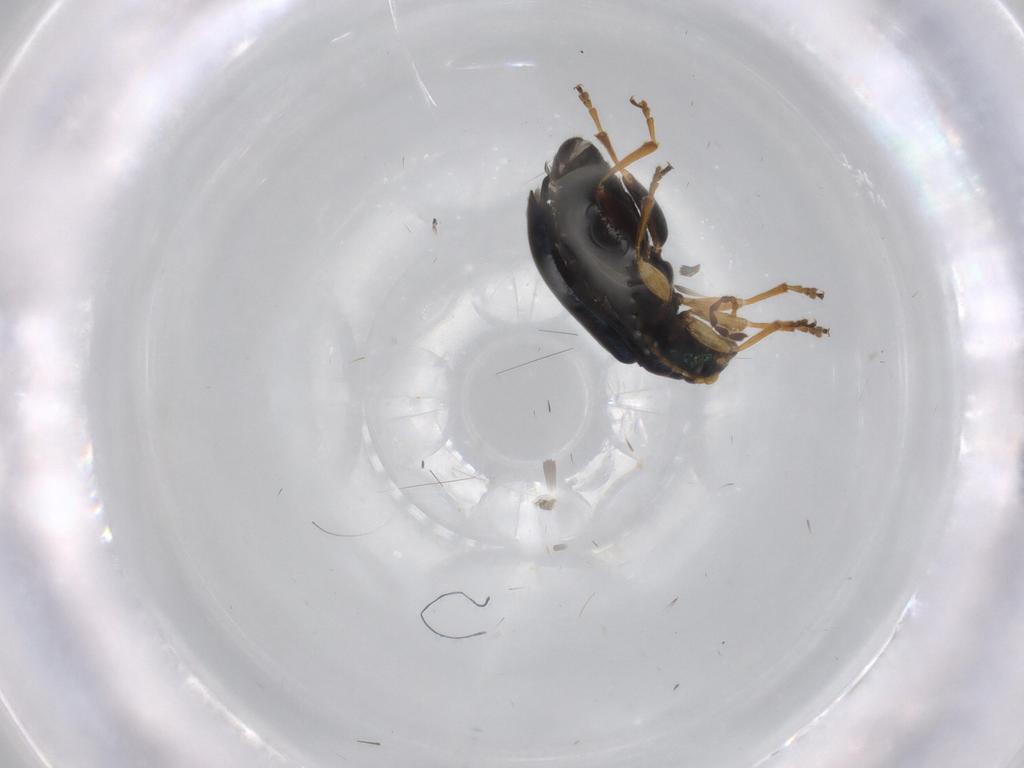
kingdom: Animalia
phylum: Arthropoda
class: Insecta
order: Coleoptera
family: Chrysomelidae
